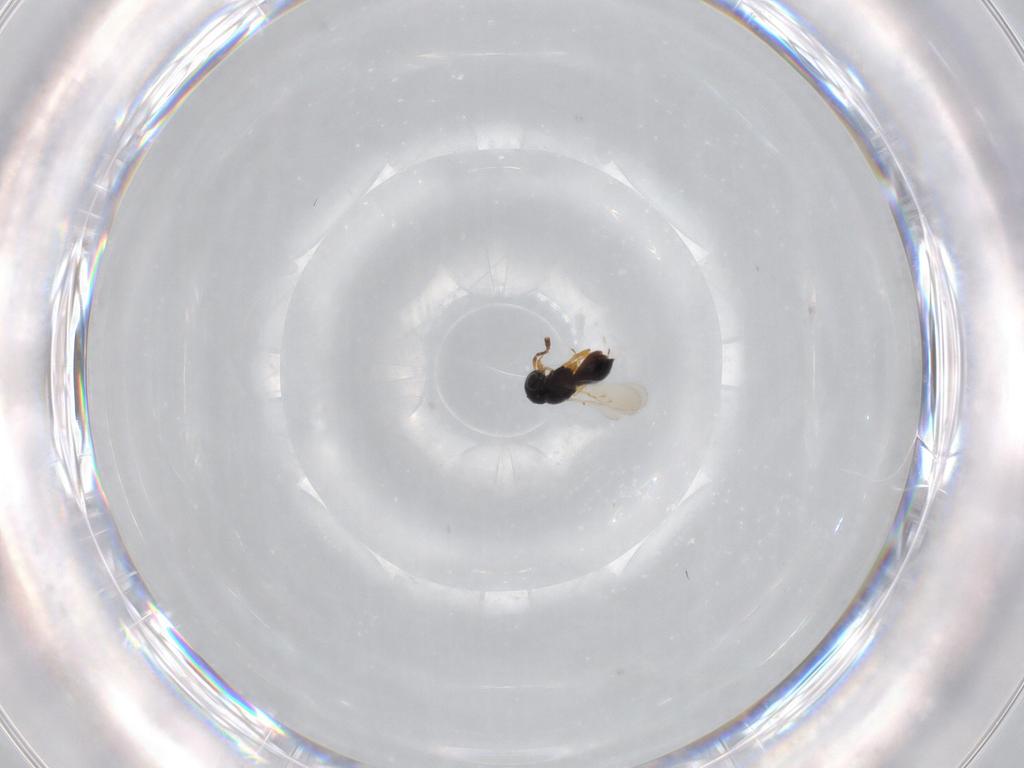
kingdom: Animalia
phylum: Arthropoda
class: Insecta
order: Hymenoptera
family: Scelionidae
